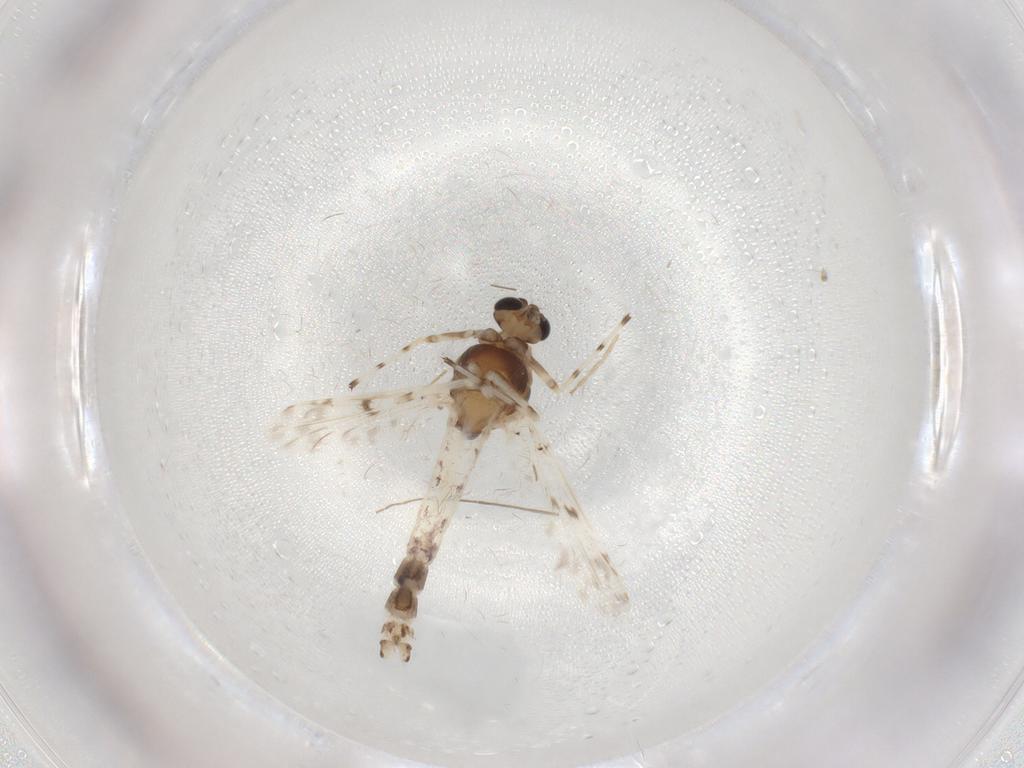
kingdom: Animalia
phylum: Arthropoda
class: Insecta
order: Diptera
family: Chironomidae
